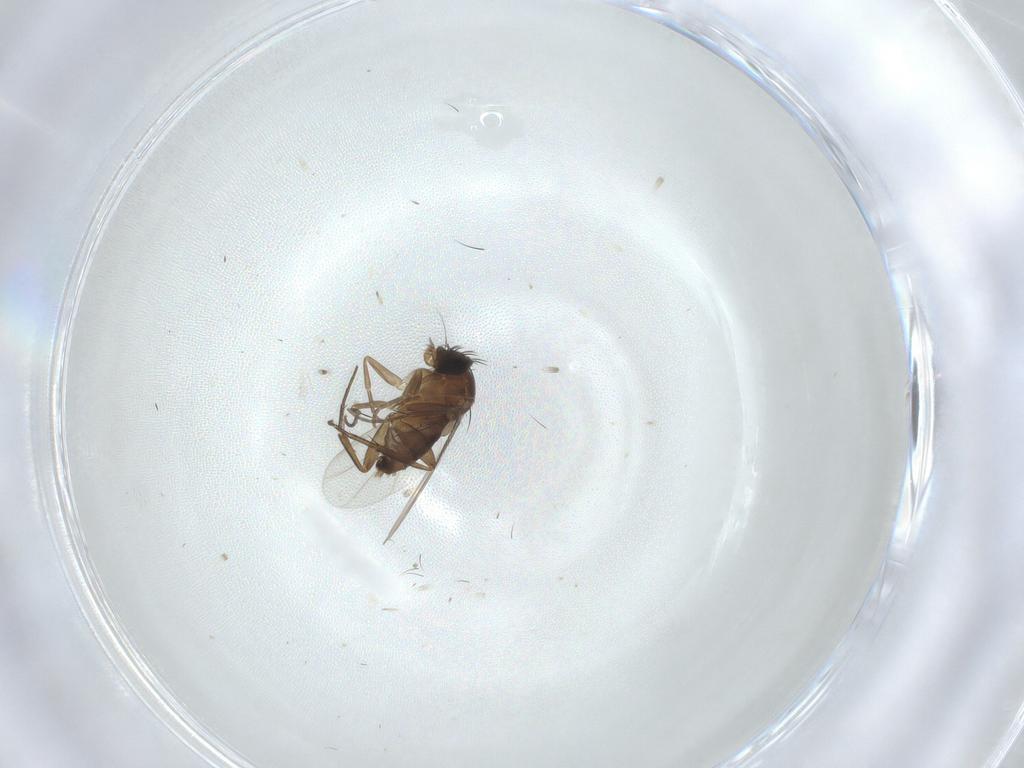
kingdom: Animalia
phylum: Arthropoda
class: Insecta
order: Diptera
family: Phoridae
